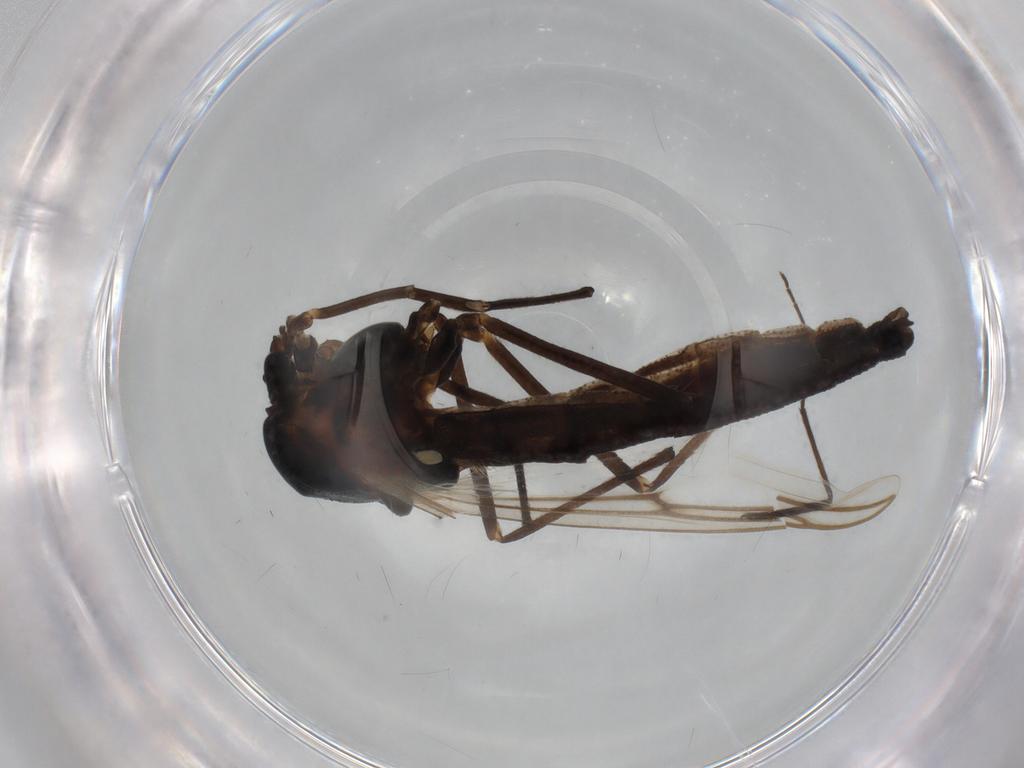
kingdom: Animalia
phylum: Arthropoda
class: Insecta
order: Diptera
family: Chironomidae
